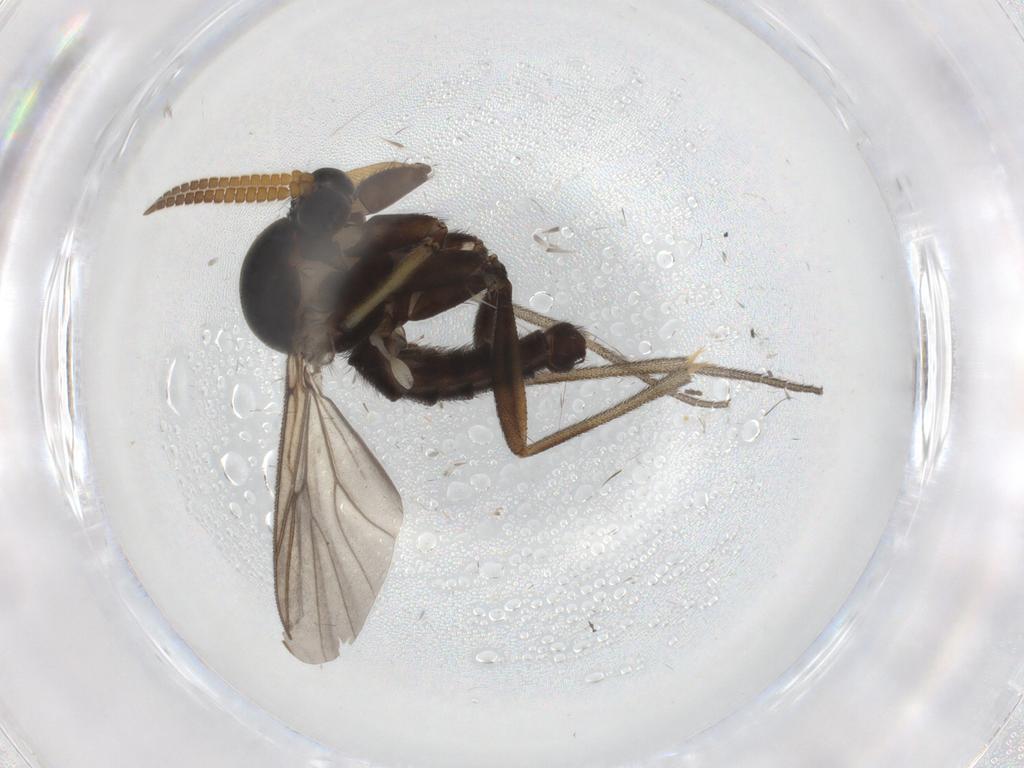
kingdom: Animalia
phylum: Arthropoda
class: Insecta
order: Diptera
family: Mycetophilidae
